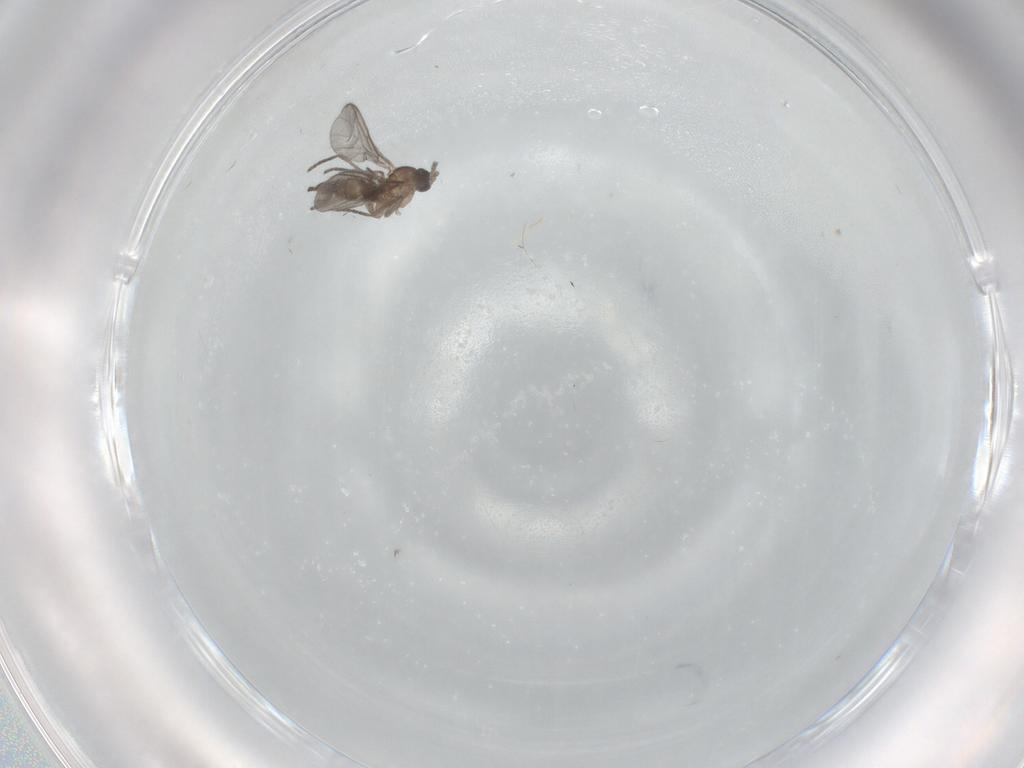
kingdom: Animalia
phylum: Arthropoda
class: Insecta
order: Diptera
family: Sciaridae
